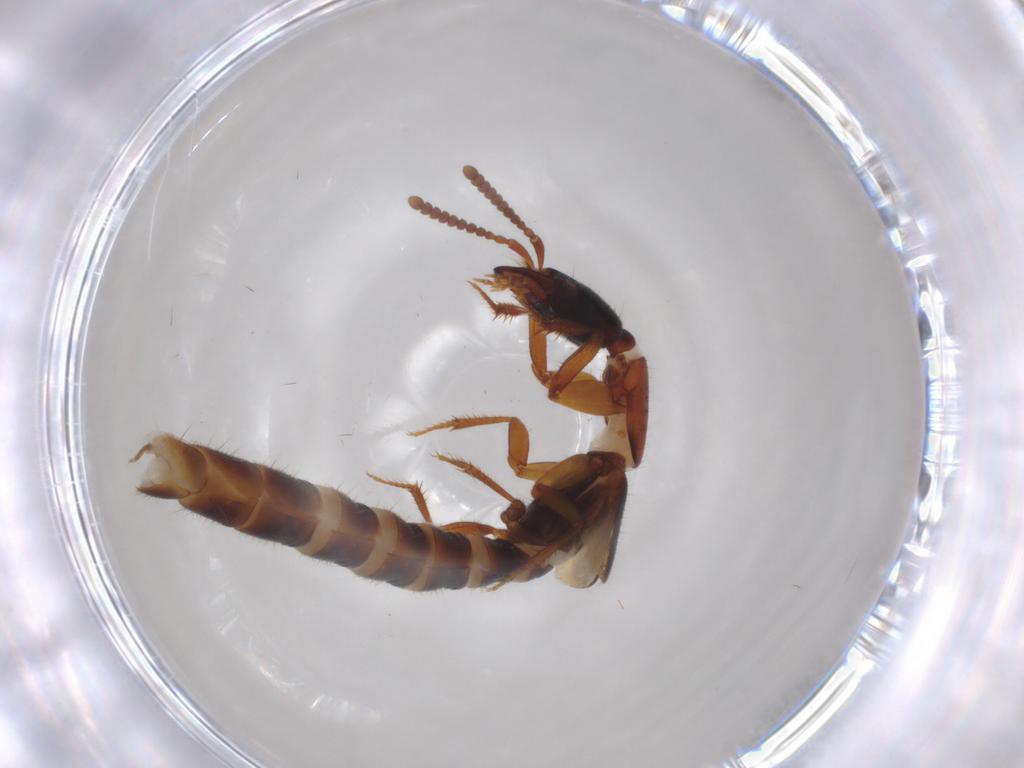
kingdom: Animalia
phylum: Arthropoda
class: Insecta
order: Coleoptera
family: Staphylinidae
